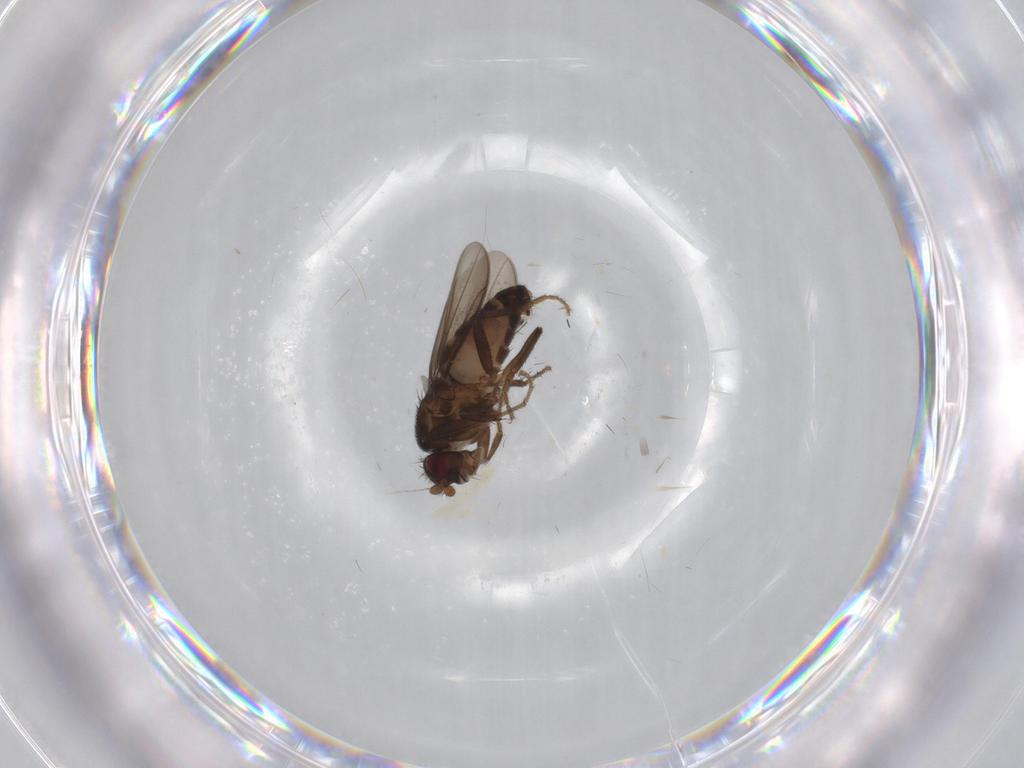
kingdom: Animalia
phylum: Arthropoda
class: Insecta
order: Diptera
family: Sphaeroceridae
